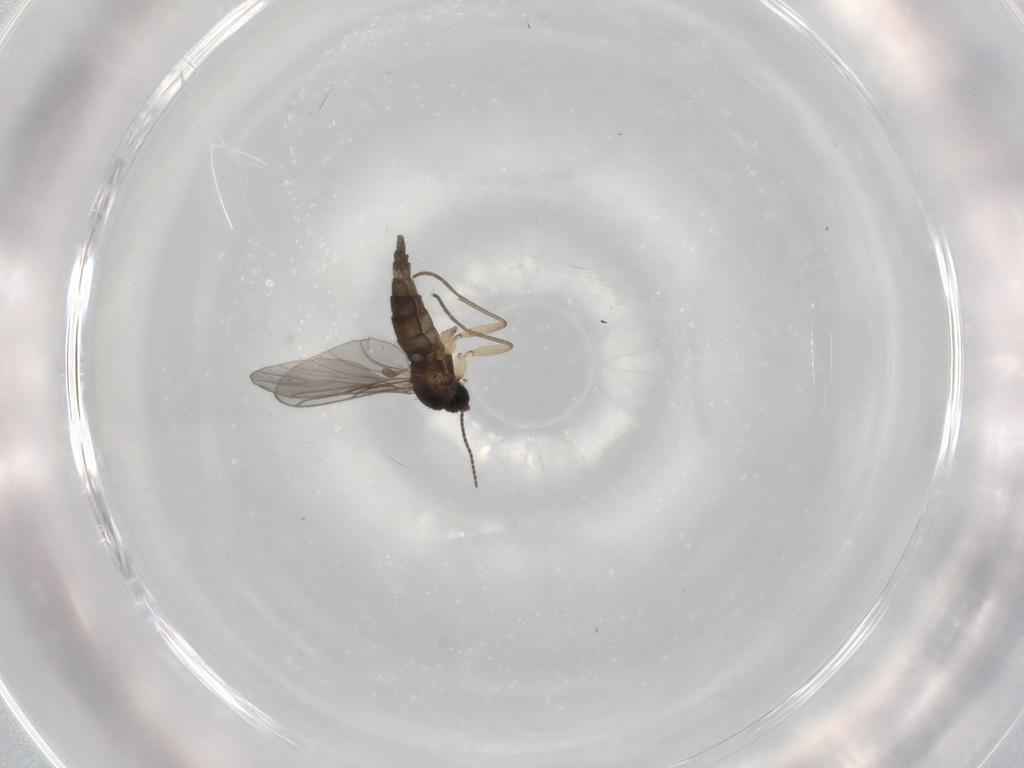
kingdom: Animalia
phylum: Arthropoda
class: Insecta
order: Diptera
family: Sciaridae
